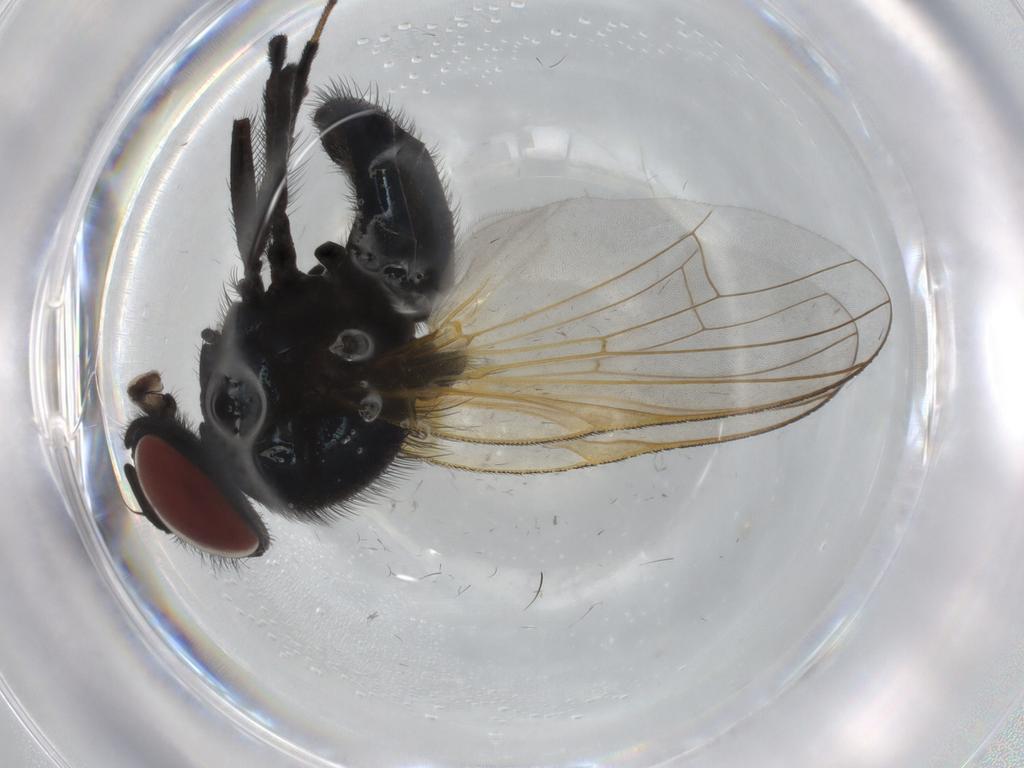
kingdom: Animalia
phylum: Arthropoda
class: Insecta
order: Diptera
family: Lonchaeidae
